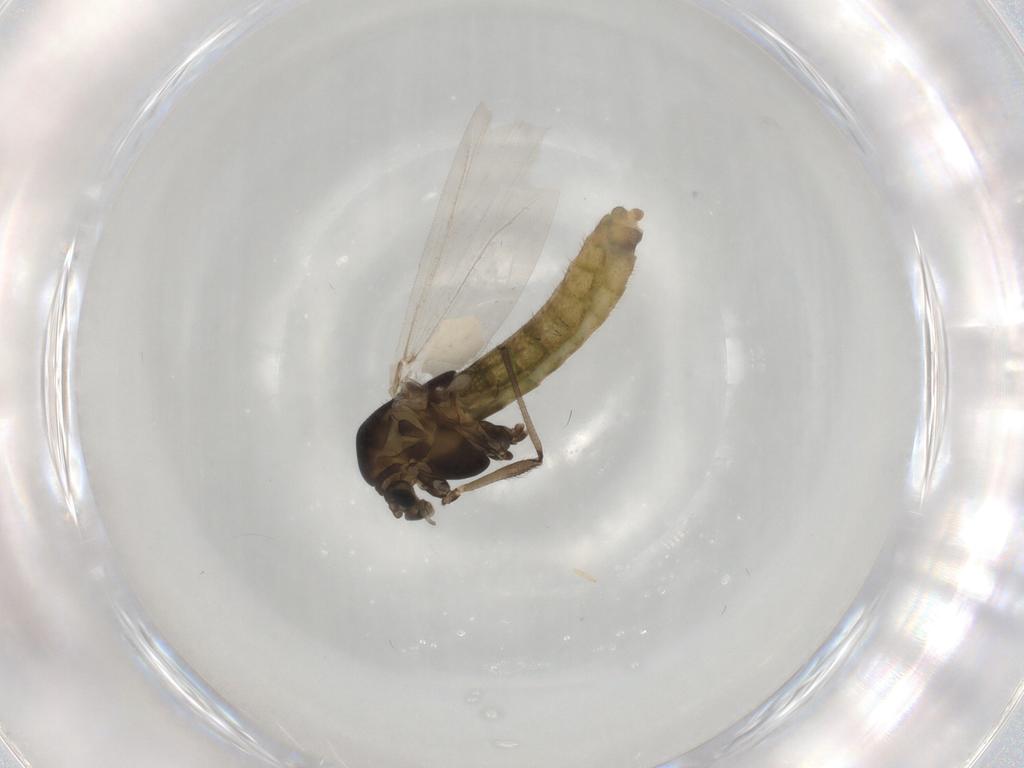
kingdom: Animalia
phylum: Arthropoda
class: Insecta
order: Diptera
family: Chironomidae
